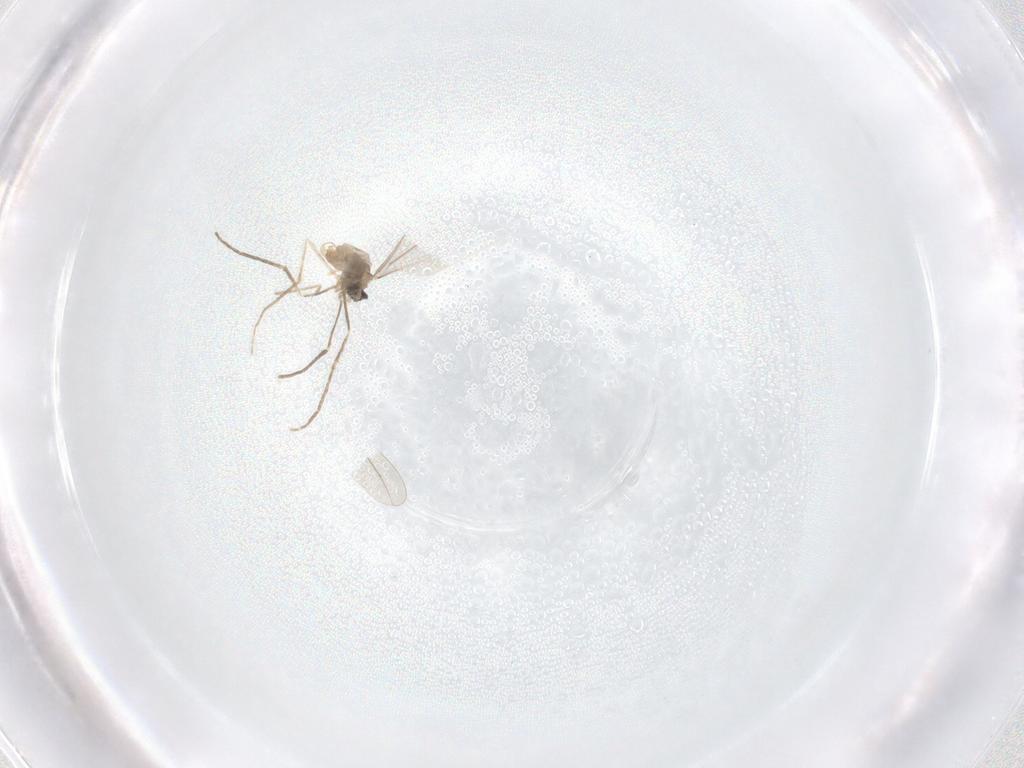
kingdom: Animalia
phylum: Arthropoda
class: Insecta
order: Diptera
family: Cecidomyiidae
